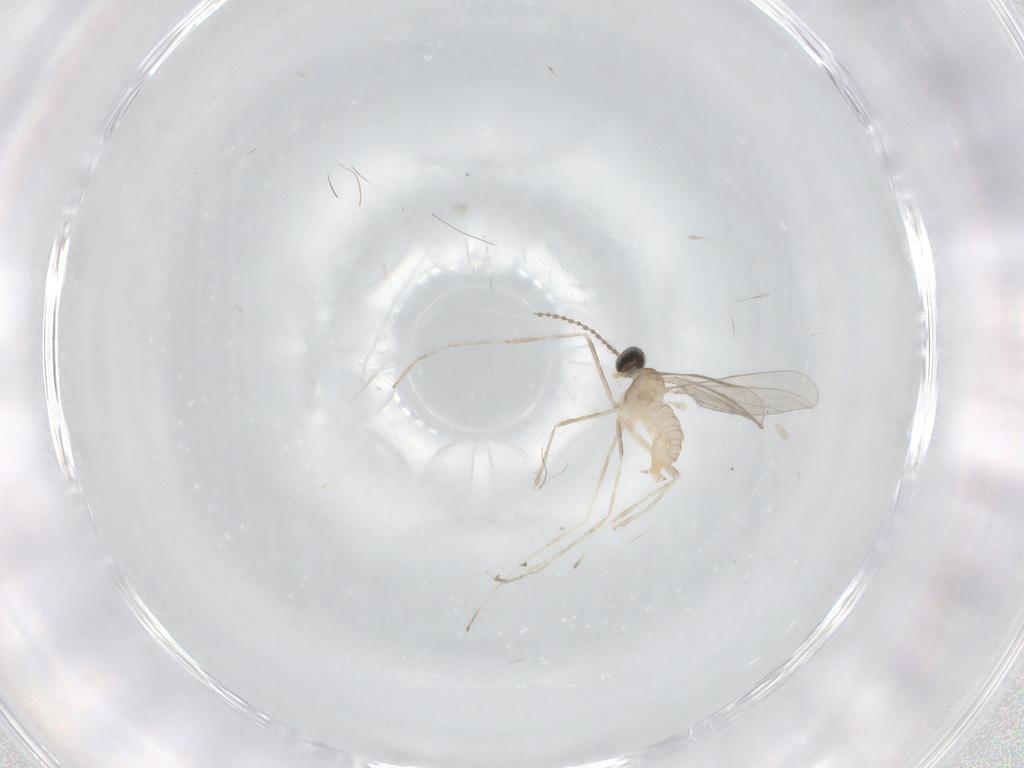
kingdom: Animalia
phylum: Arthropoda
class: Insecta
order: Diptera
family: Cecidomyiidae
